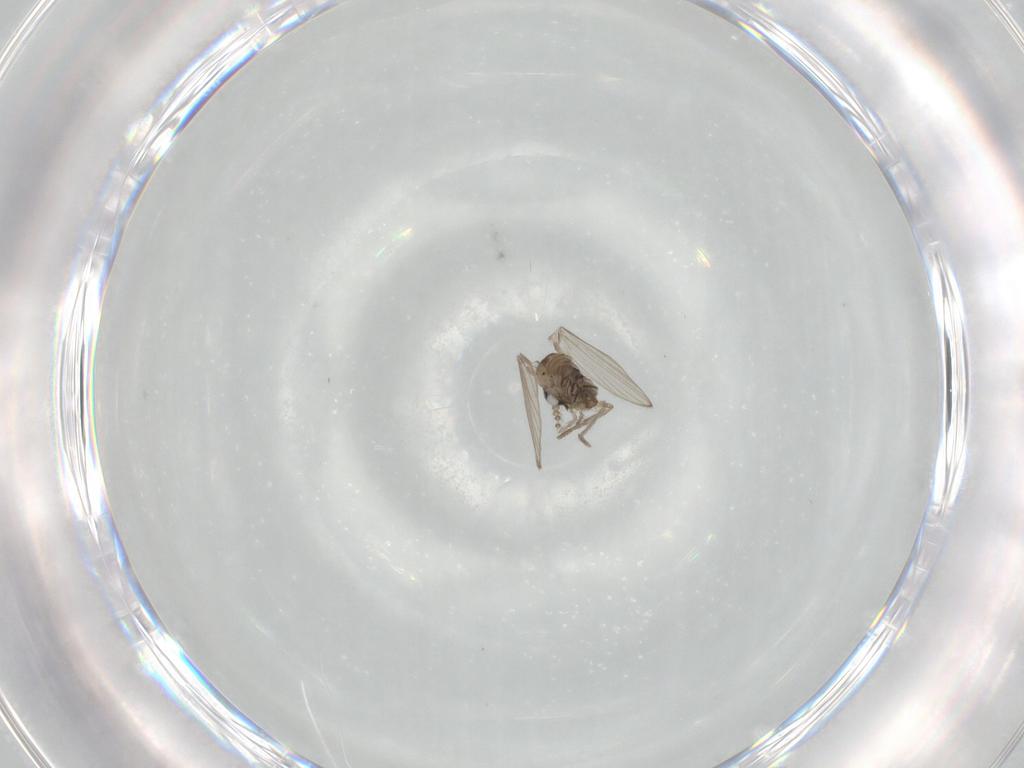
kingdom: Animalia
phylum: Arthropoda
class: Insecta
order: Diptera
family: Psychodidae
